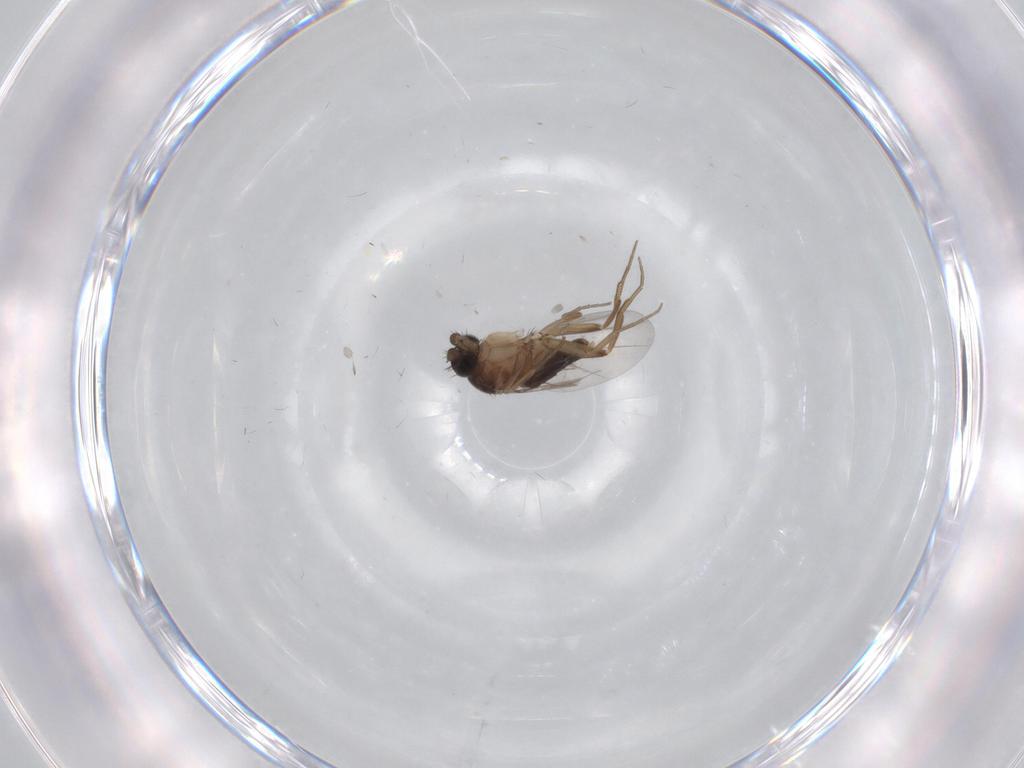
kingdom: Animalia
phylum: Arthropoda
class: Insecta
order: Diptera
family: Phoridae
